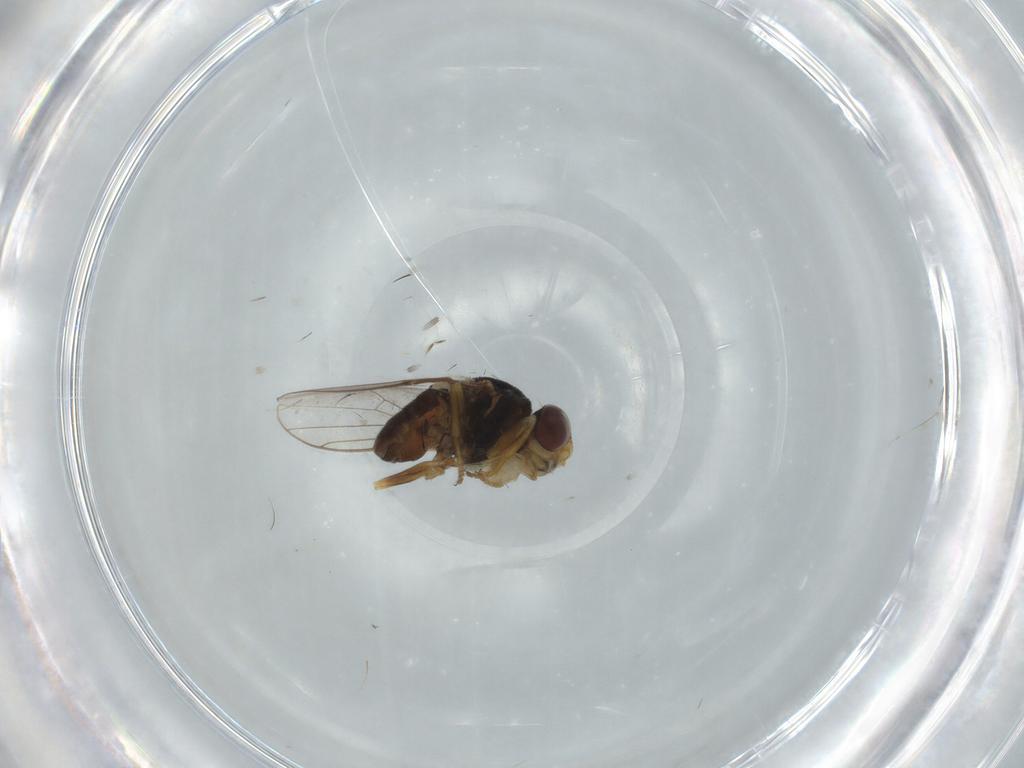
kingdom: Animalia
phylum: Arthropoda
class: Insecta
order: Diptera
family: Chloropidae
